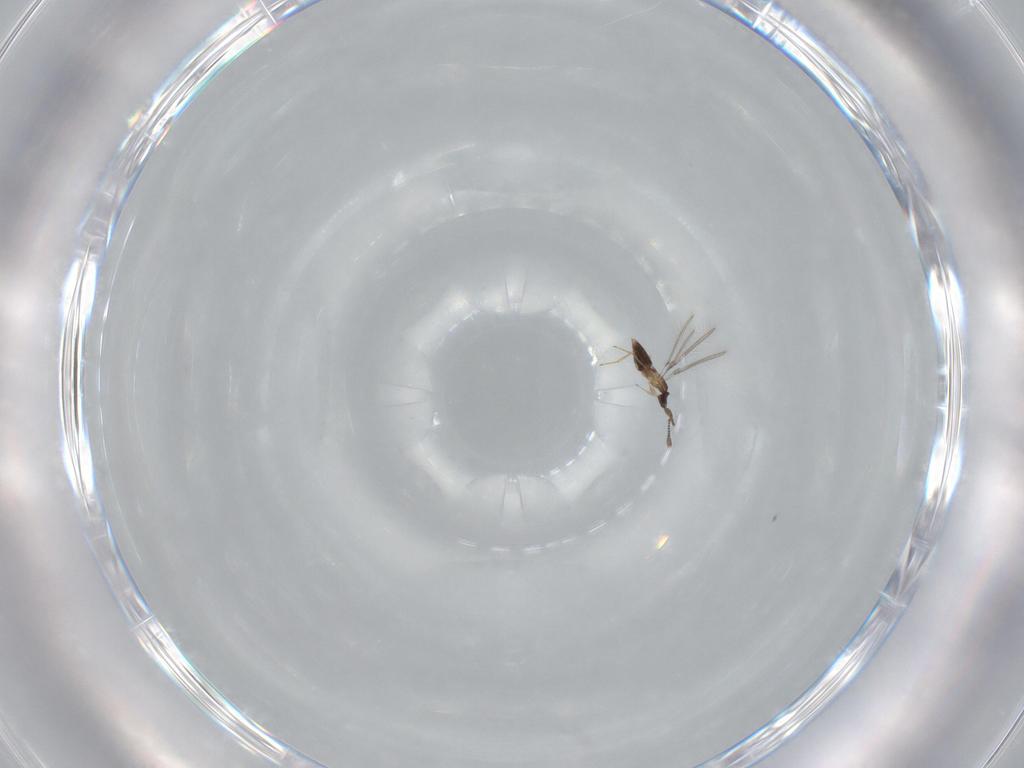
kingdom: Animalia
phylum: Arthropoda
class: Insecta
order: Hymenoptera
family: Mymaridae
